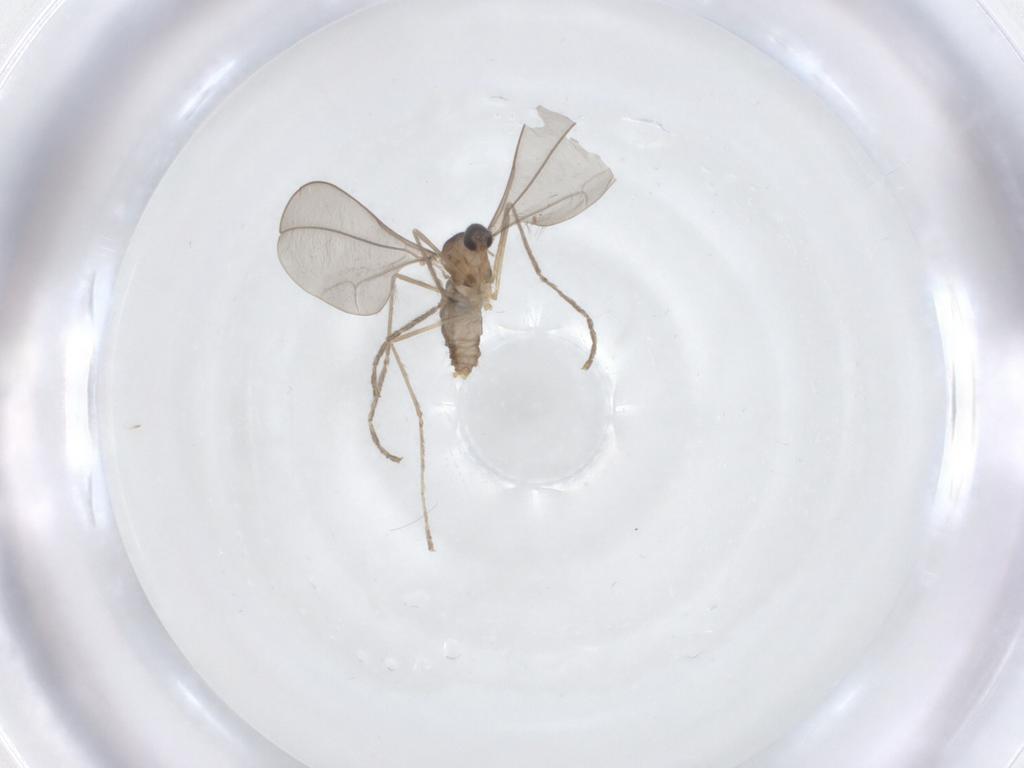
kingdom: Animalia
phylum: Arthropoda
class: Insecta
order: Diptera
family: Cecidomyiidae
